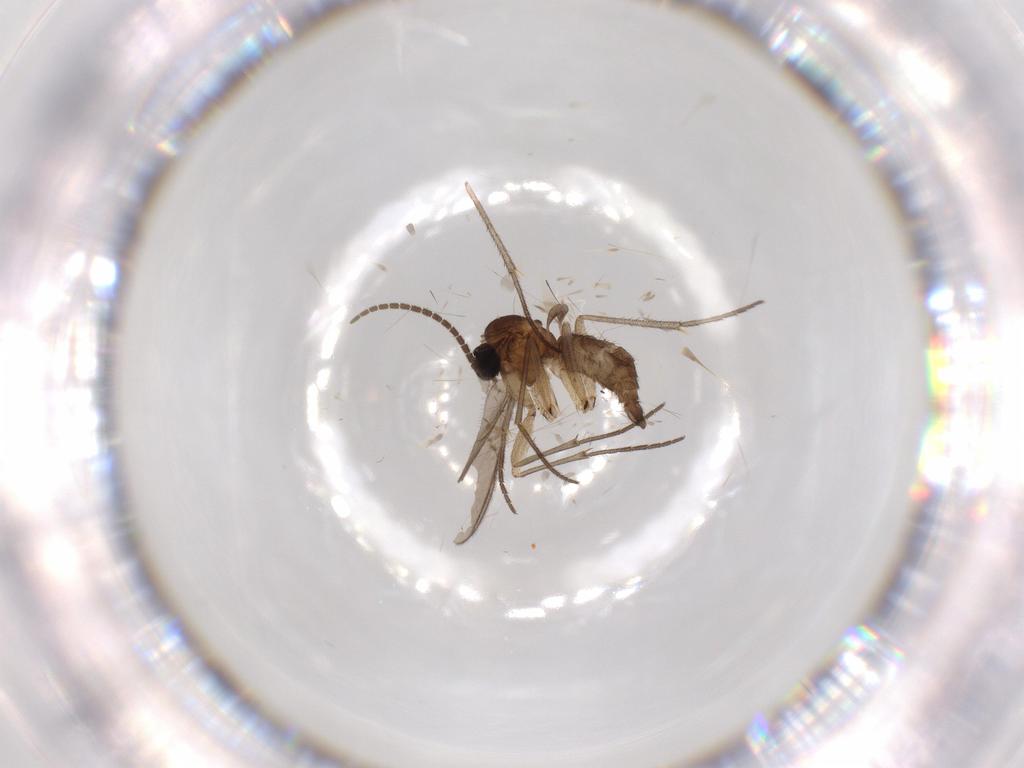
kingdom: Animalia
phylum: Arthropoda
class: Insecta
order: Diptera
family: Sciaridae
